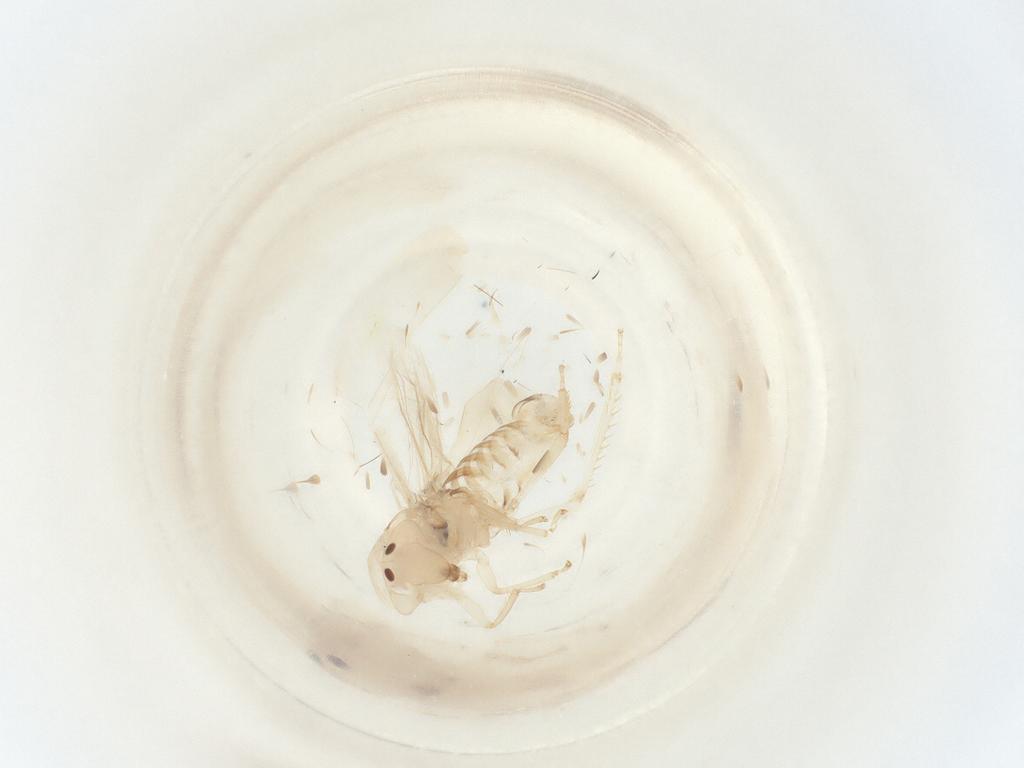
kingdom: Animalia
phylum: Arthropoda
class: Insecta
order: Hemiptera
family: Cicadellidae
